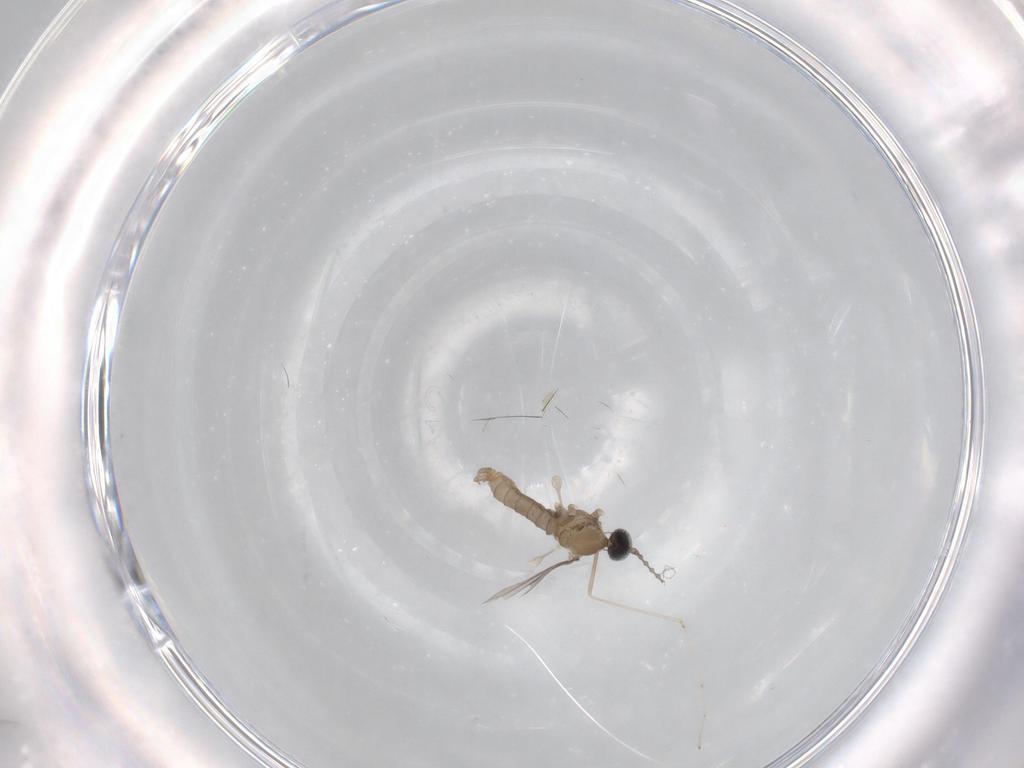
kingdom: Animalia
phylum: Arthropoda
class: Insecta
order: Diptera
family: Cecidomyiidae
